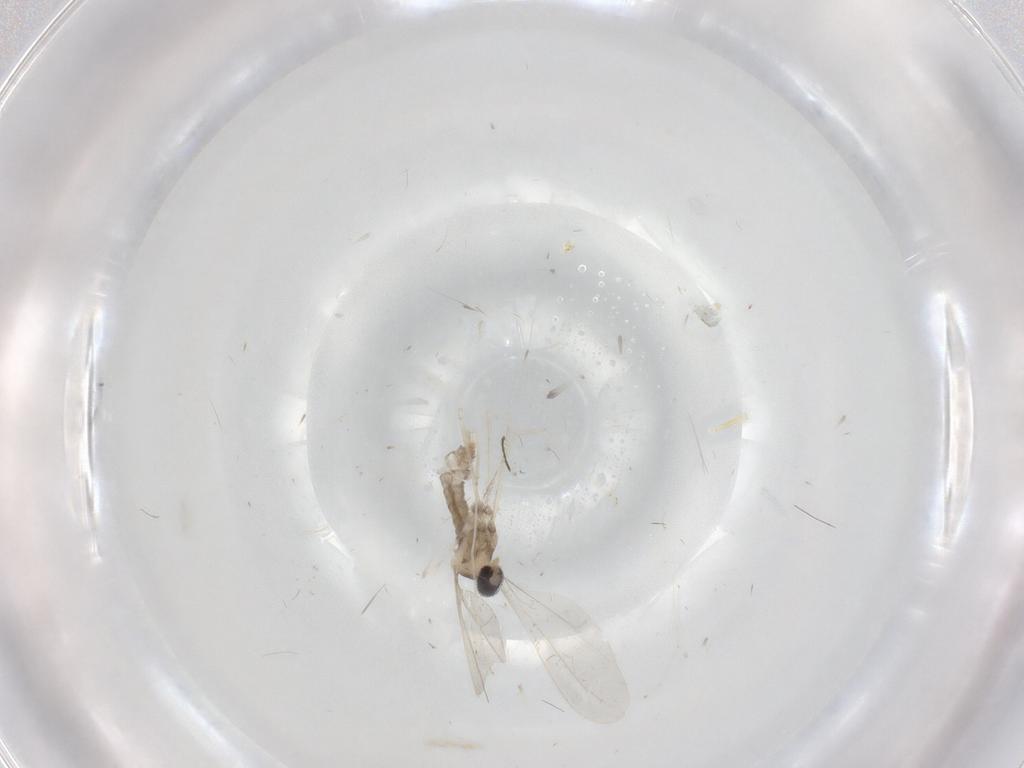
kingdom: Animalia
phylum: Arthropoda
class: Insecta
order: Diptera
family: Cecidomyiidae
